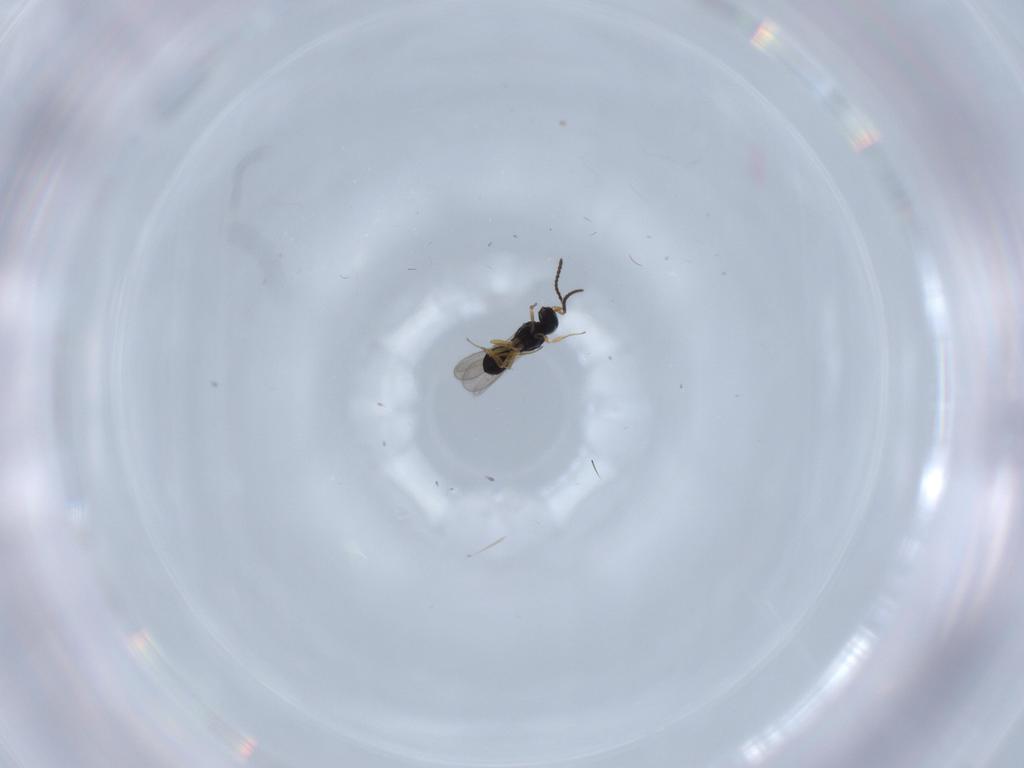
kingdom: Animalia
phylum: Arthropoda
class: Insecta
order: Hymenoptera
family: Scelionidae
